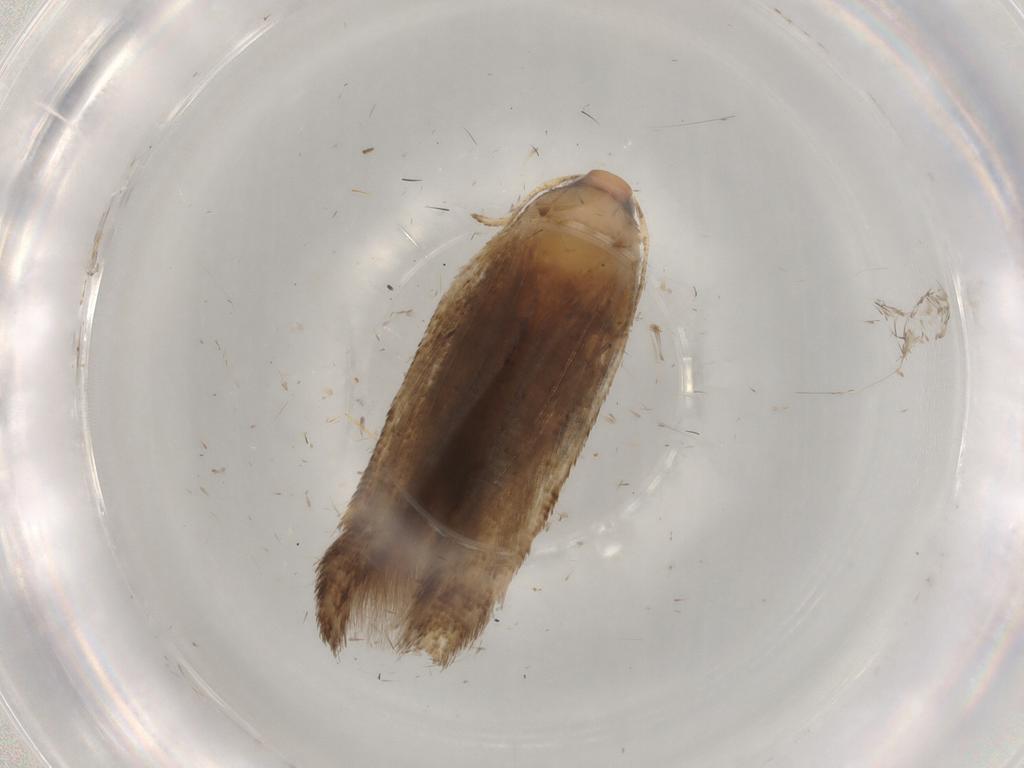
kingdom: Animalia
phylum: Arthropoda
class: Insecta
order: Lepidoptera
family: Cosmopterigidae
